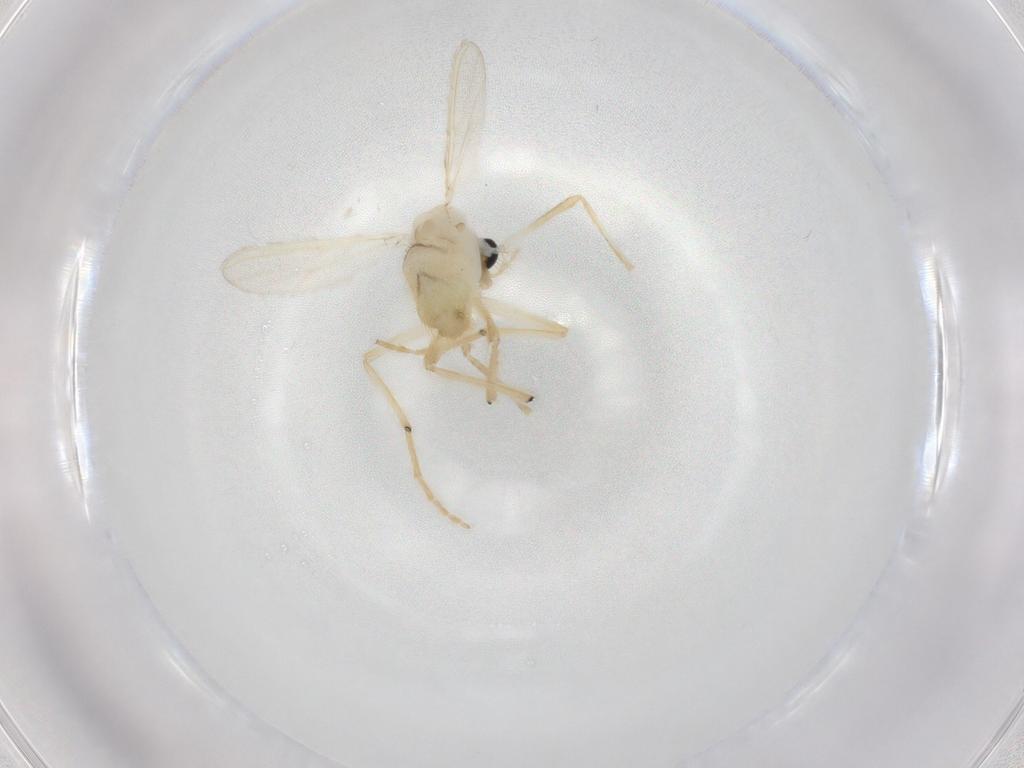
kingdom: Animalia
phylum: Arthropoda
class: Insecta
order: Diptera
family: Chironomidae
